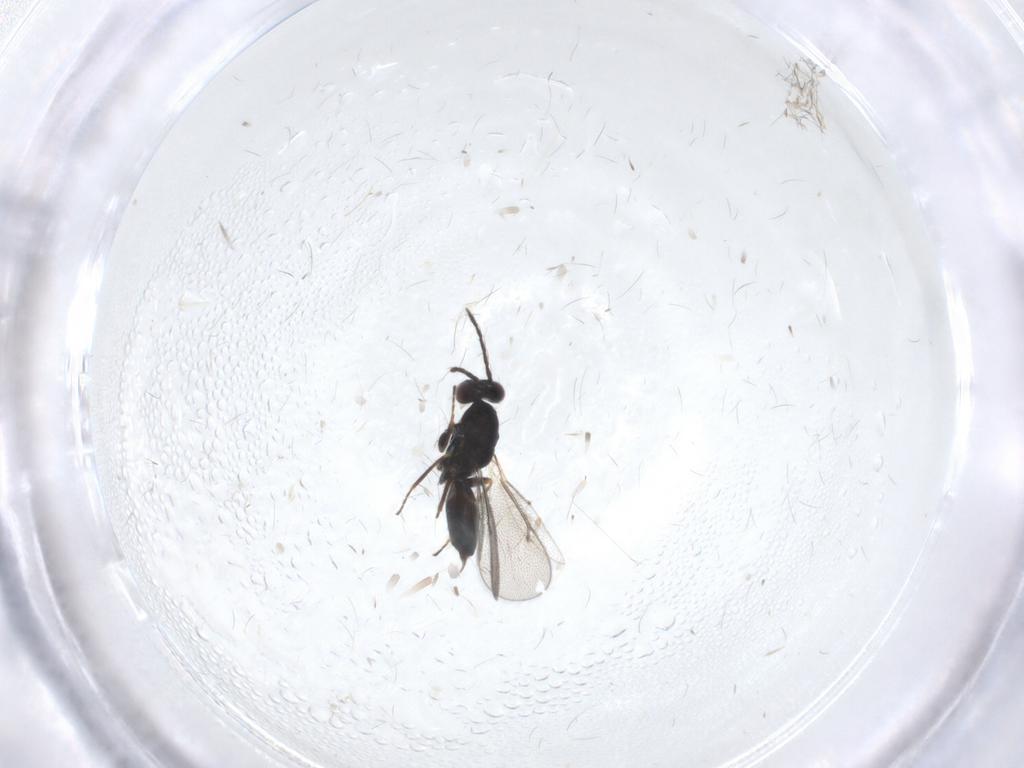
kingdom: Animalia
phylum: Arthropoda
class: Insecta
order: Hymenoptera
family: Eulophidae
